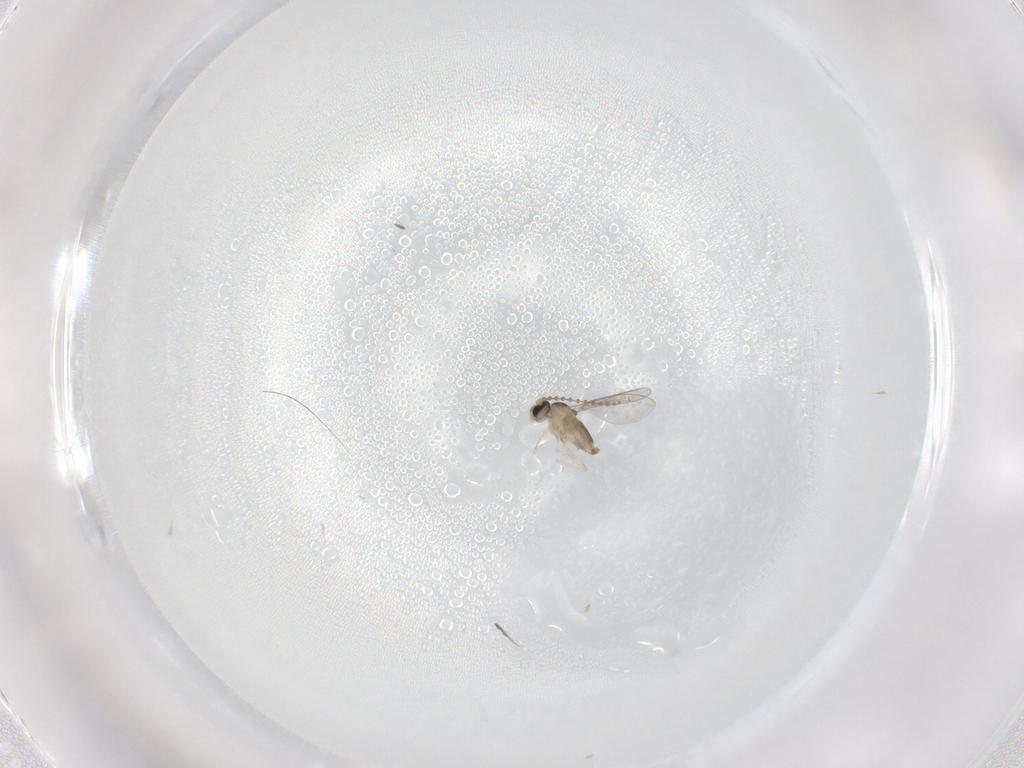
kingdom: Animalia
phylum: Arthropoda
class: Insecta
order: Diptera
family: Cecidomyiidae
